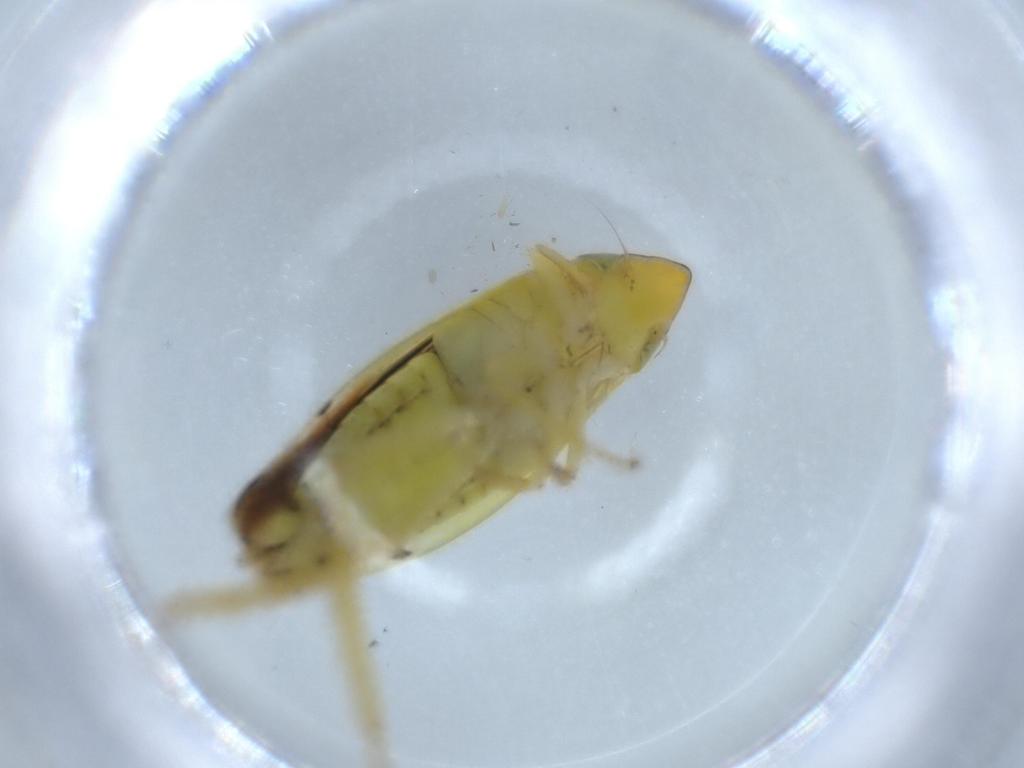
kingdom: Animalia
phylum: Arthropoda
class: Insecta
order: Hemiptera
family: Cicadellidae
